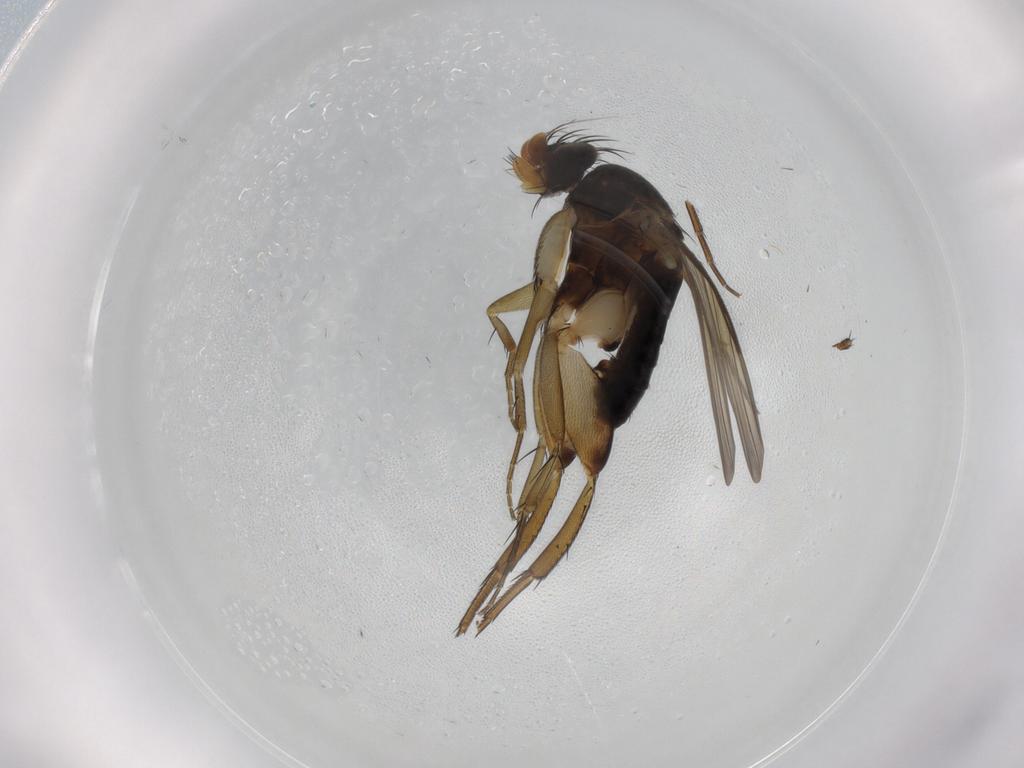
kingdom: Animalia
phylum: Arthropoda
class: Insecta
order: Diptera
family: Phoridae
